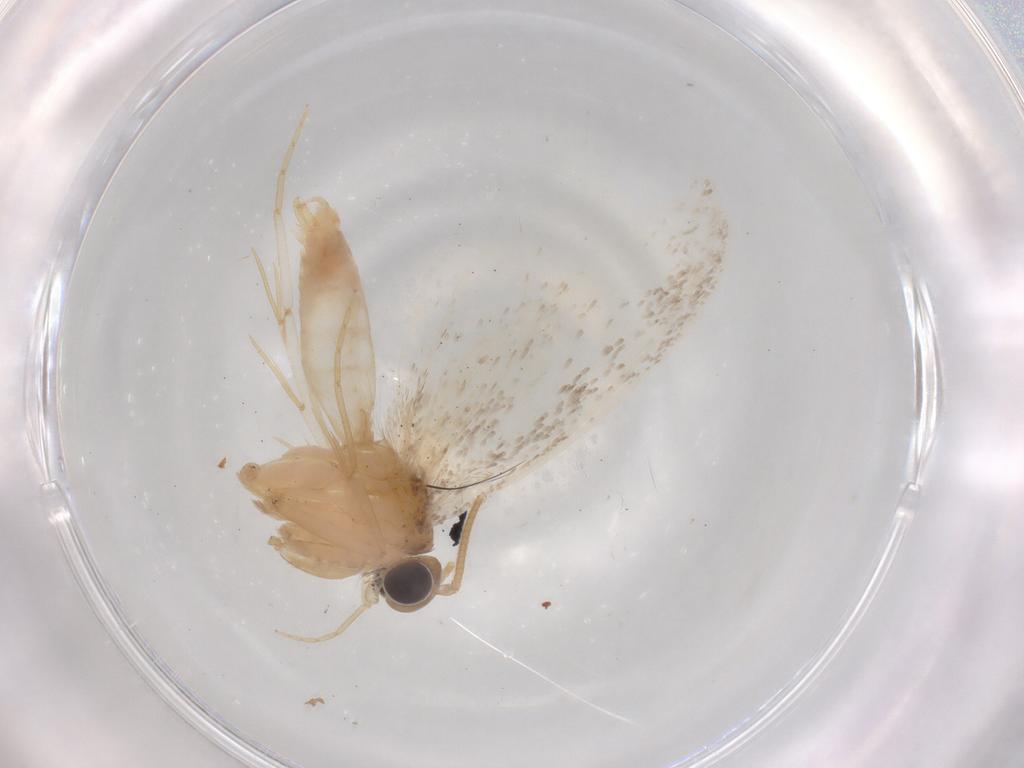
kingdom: Animalia
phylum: Arthropoda
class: Insecta
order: Lepidoptera
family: Tineidae
